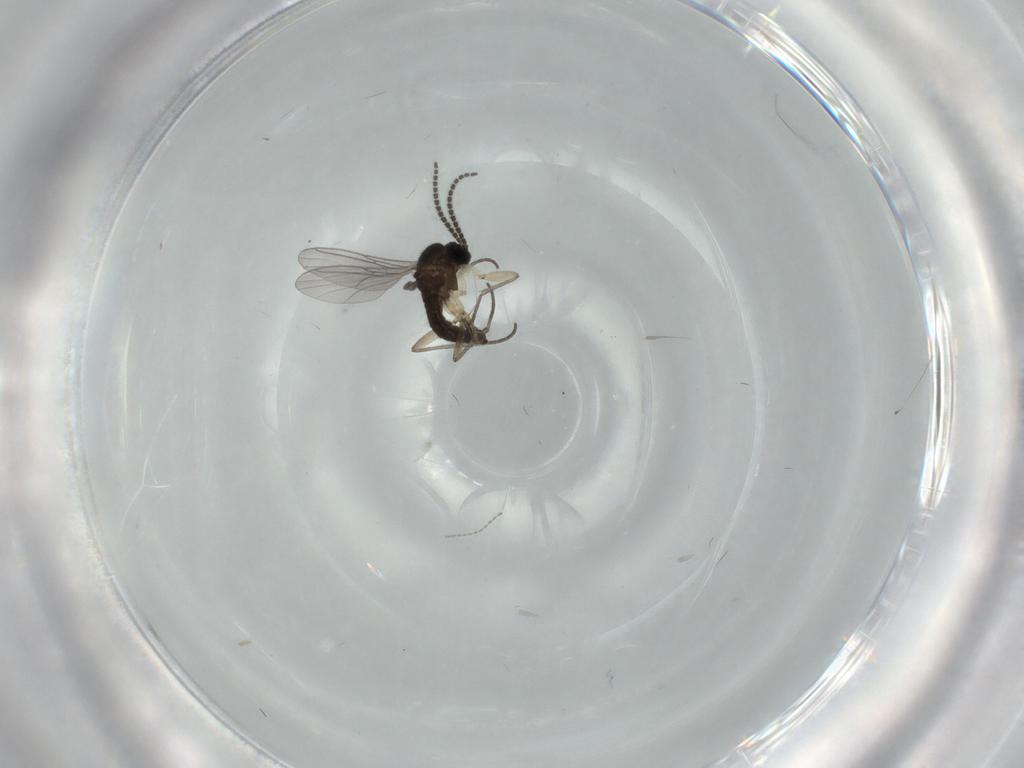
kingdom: Animalia
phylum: Arthropoda
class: Insecta
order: Diptera
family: Sciaridae
